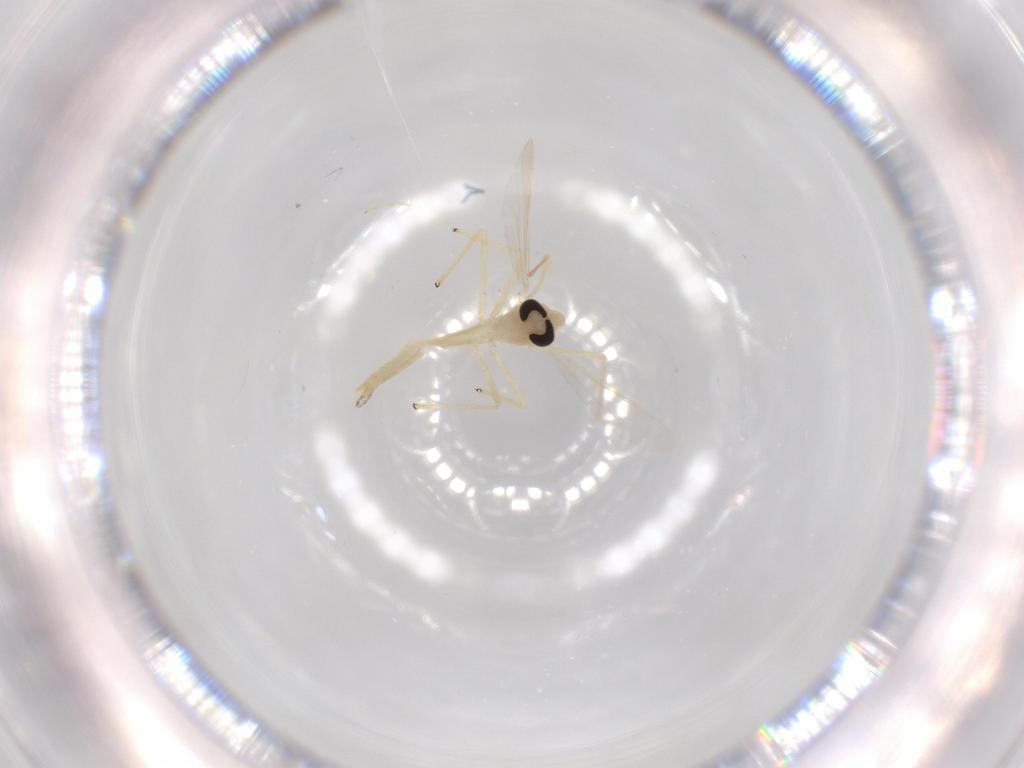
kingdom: Animalia
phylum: Arthropoda
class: Insecta
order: Diptera
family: Chironomidae
